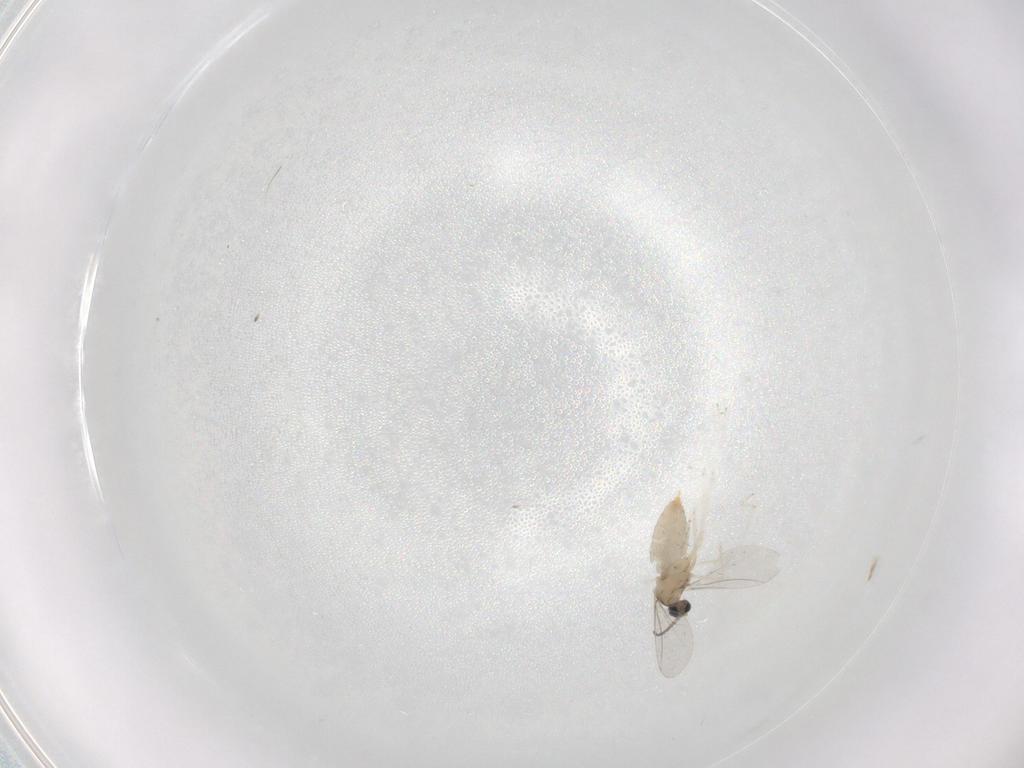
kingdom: Animalia
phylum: Arthropoda
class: Insecta
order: Diptera
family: Cecidomyiidae
